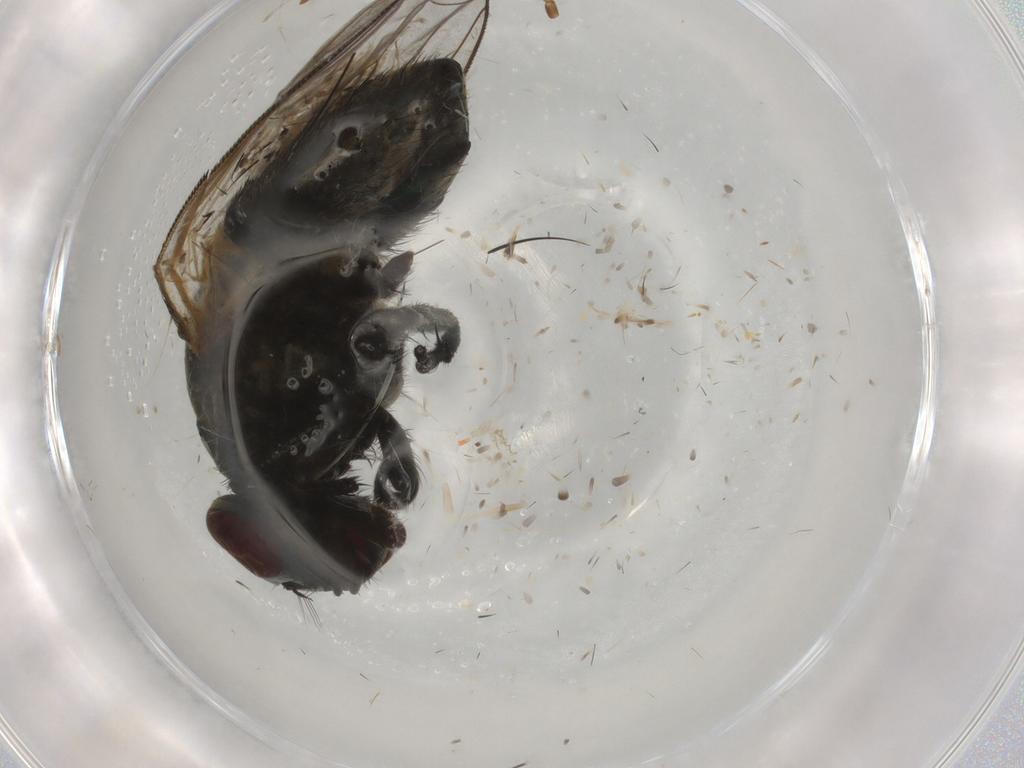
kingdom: Animalia
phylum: Arthropoda
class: Insecta
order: Diptera
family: Muscidae
